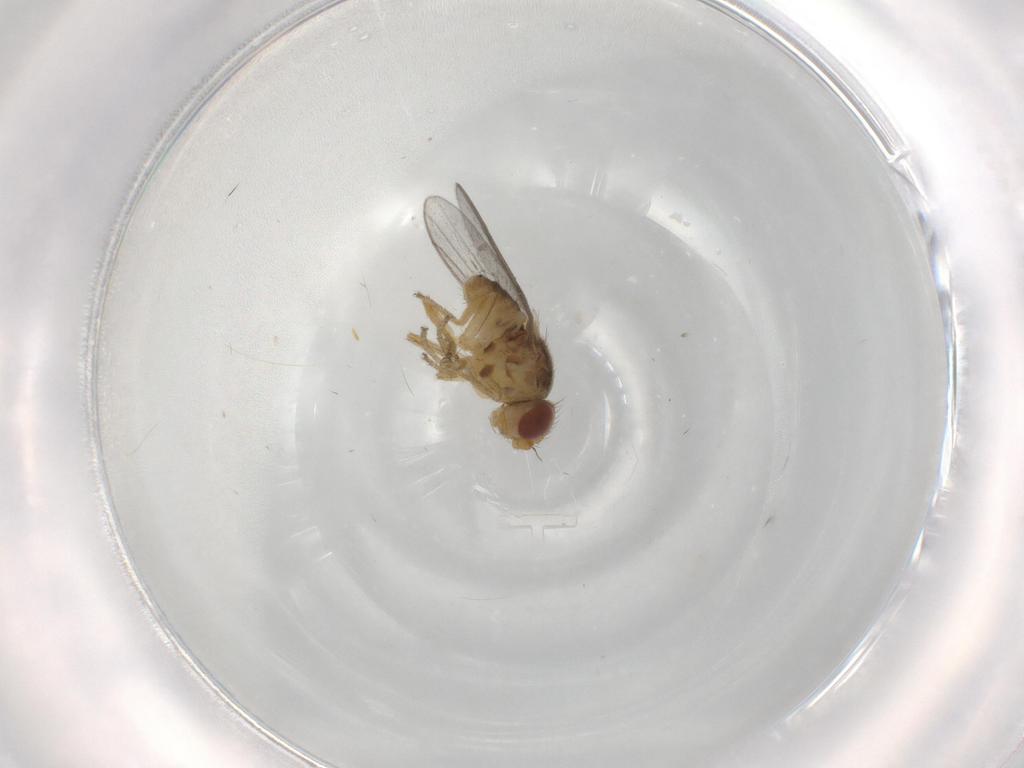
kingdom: Animalia
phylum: Arthropoda
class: Insecta
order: Diptera
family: Chloropidae
